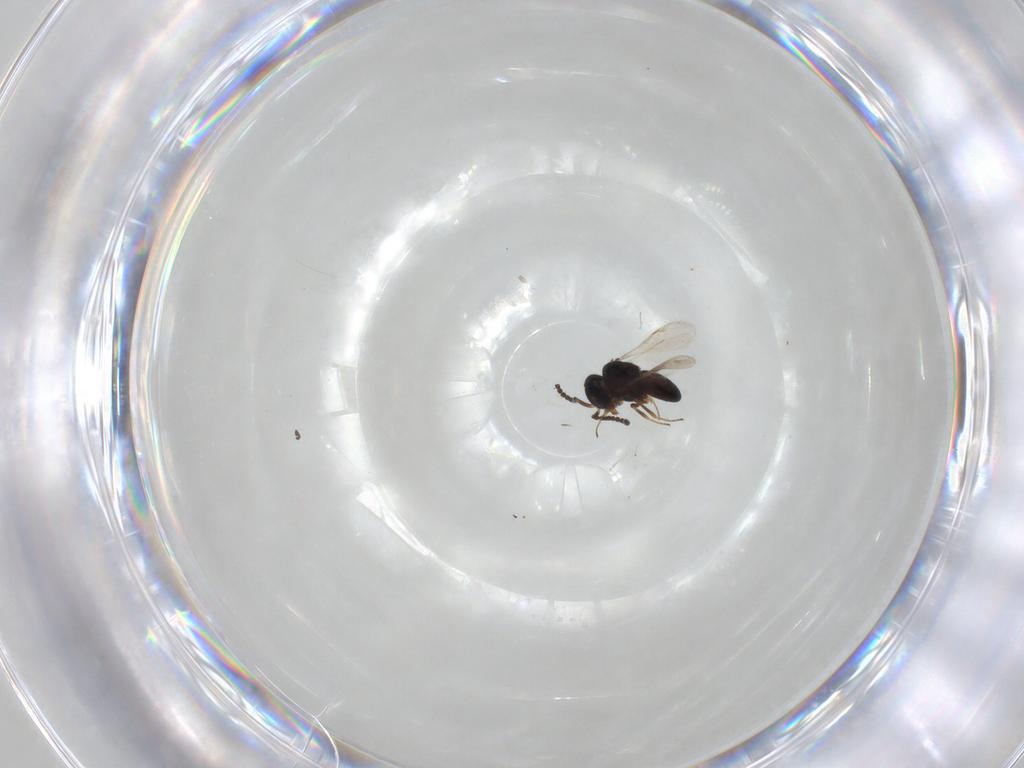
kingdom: Animalia
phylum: Arthropoda
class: Insecta
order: Hymenoptera
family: Scelionidae
